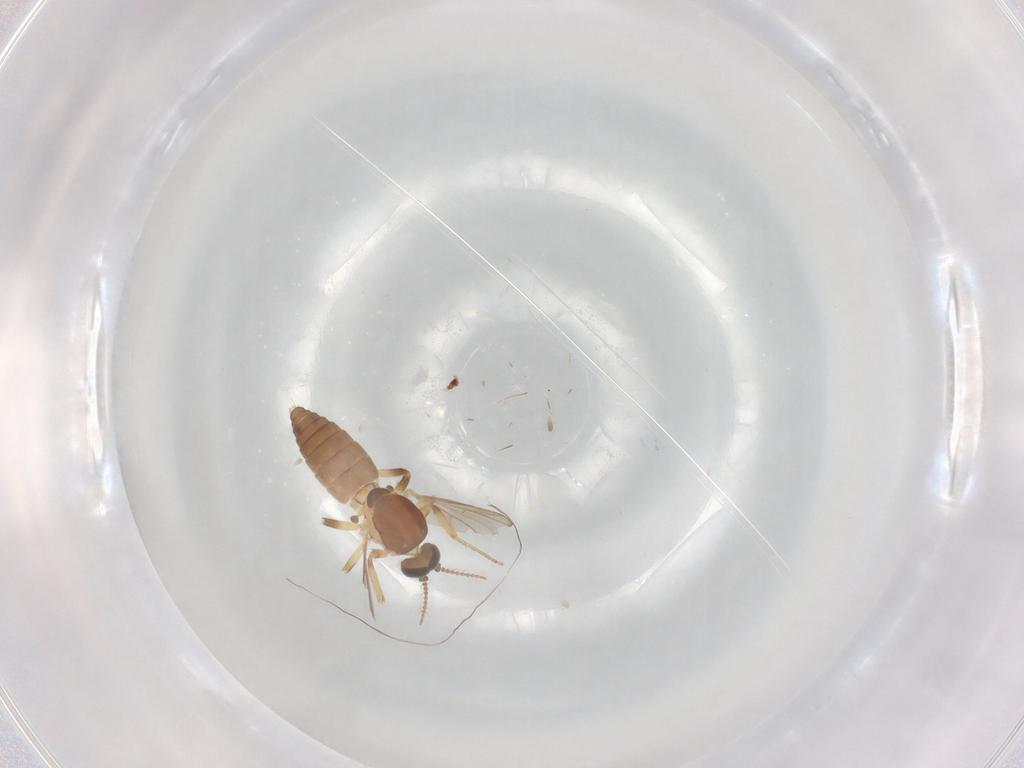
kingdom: Animalia
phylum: Arthropoda
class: Insecta
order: Diptera
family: Ceratopogonidae
